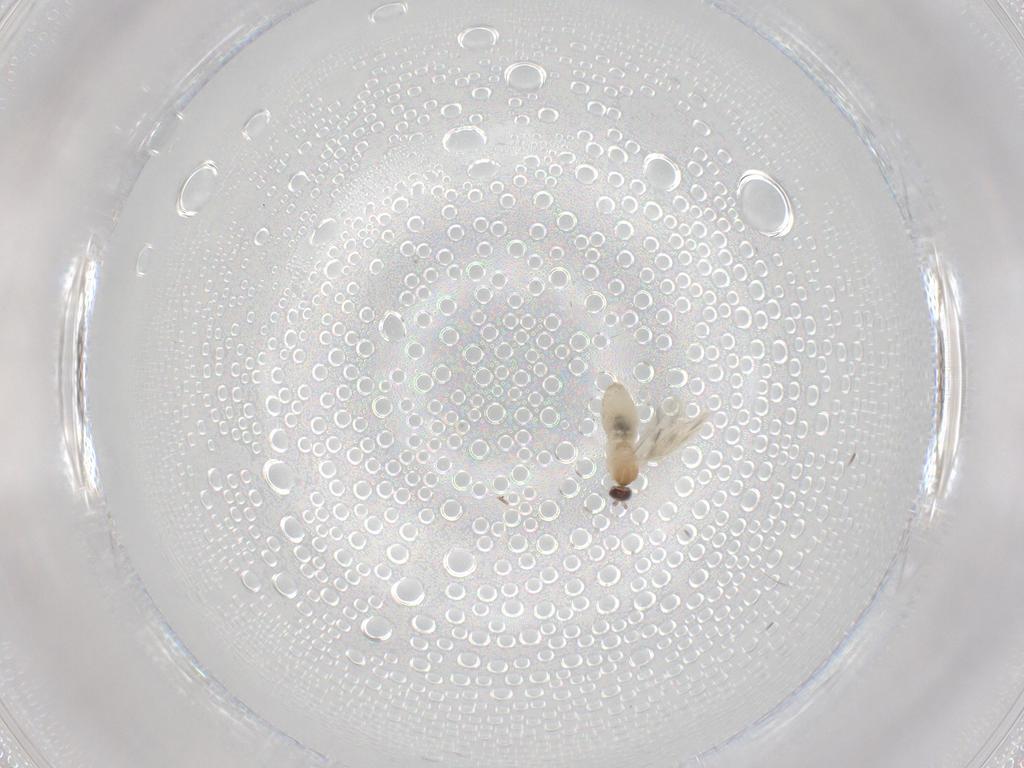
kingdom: Animalia
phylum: Arthropoda
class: Insecta
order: Diptera
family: Cecidomyiidae
